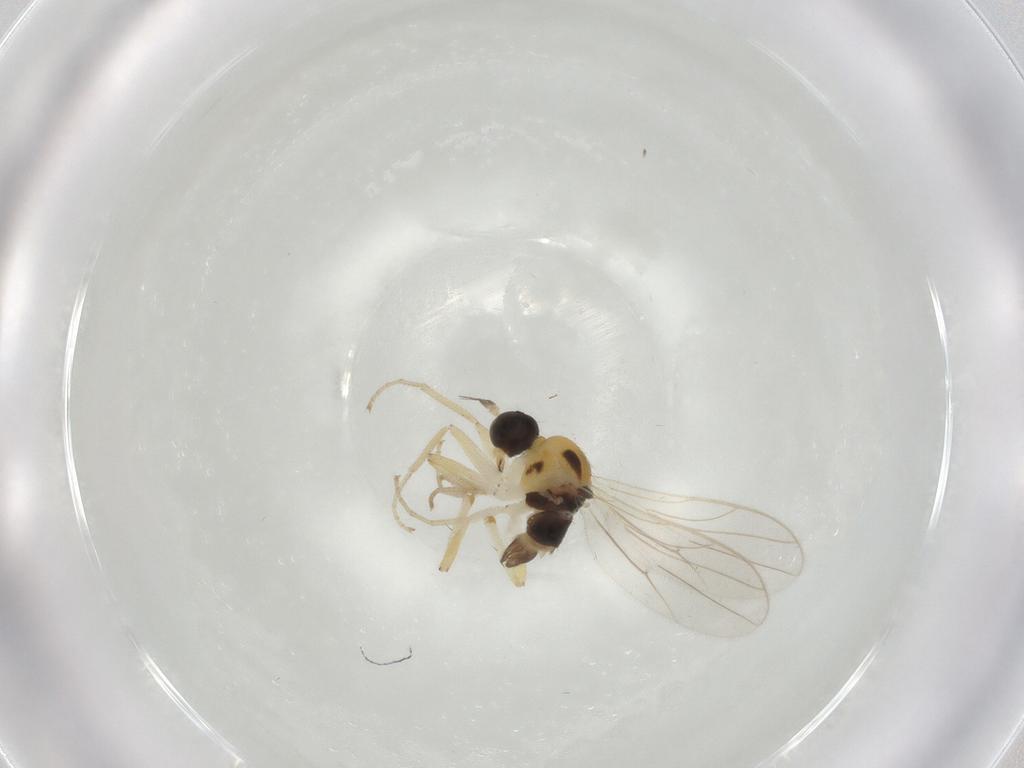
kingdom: Animalia
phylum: Arthropoda
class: Insecta
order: Diptera
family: Hybotidae
